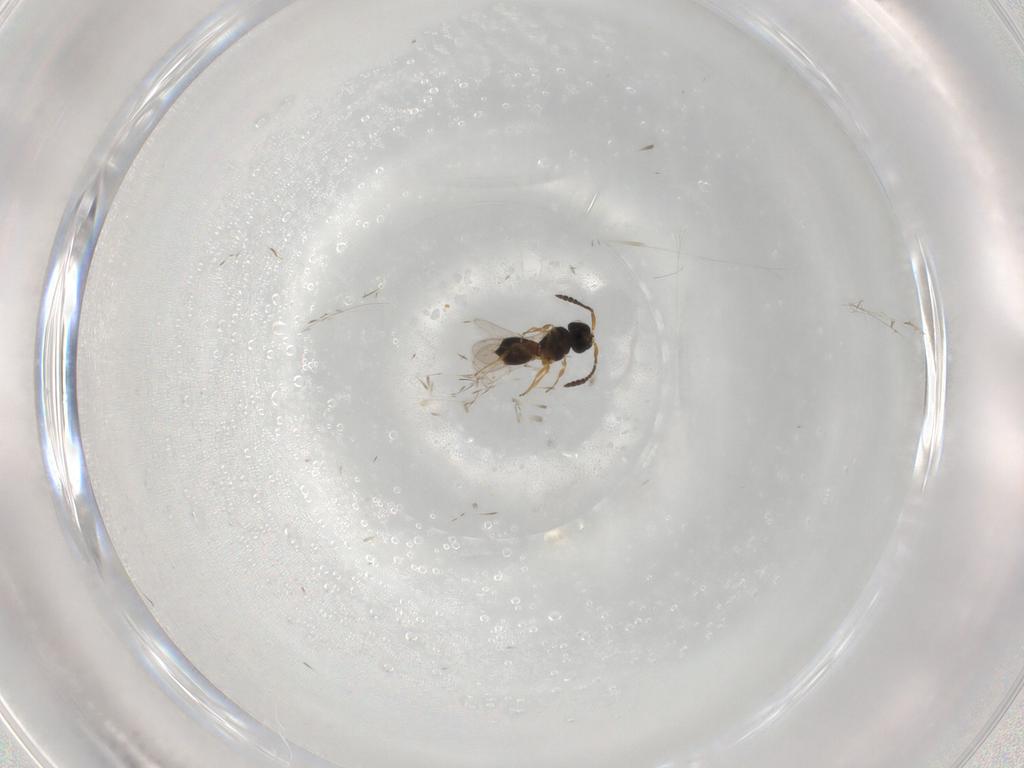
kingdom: Animalia
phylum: Arthropoda
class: Insecta
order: Hymenoptera
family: Scelionidae
